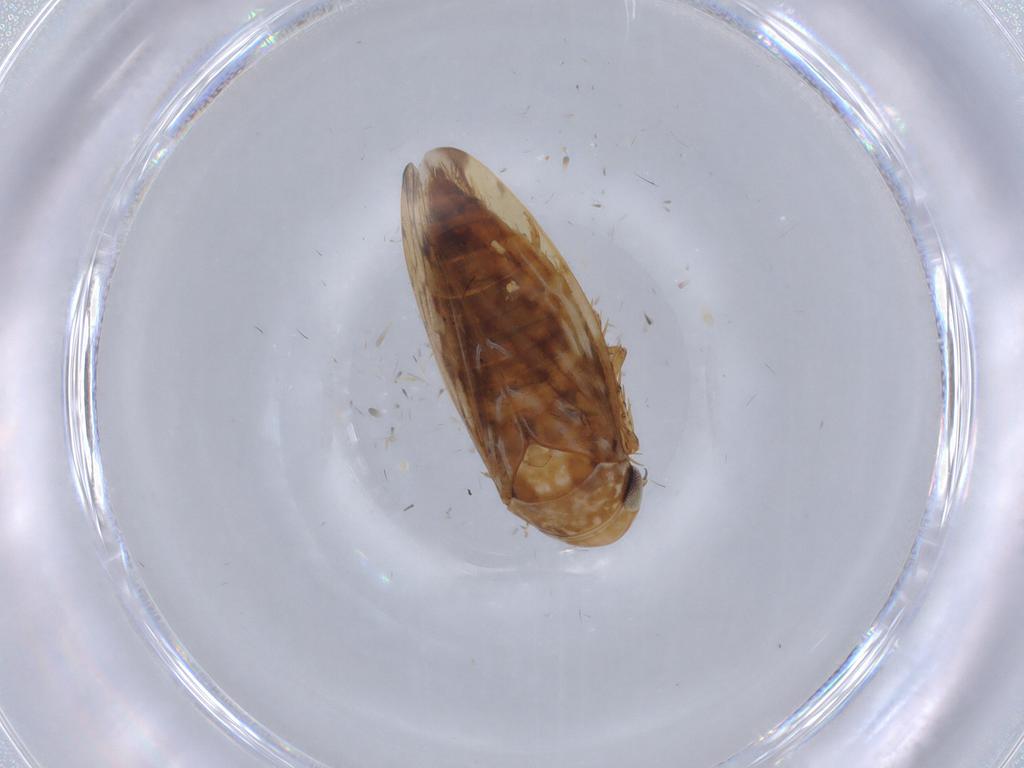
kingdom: Animalia
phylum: Arthropoda
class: Insecta
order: Hemiptera
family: Cicadellidae
